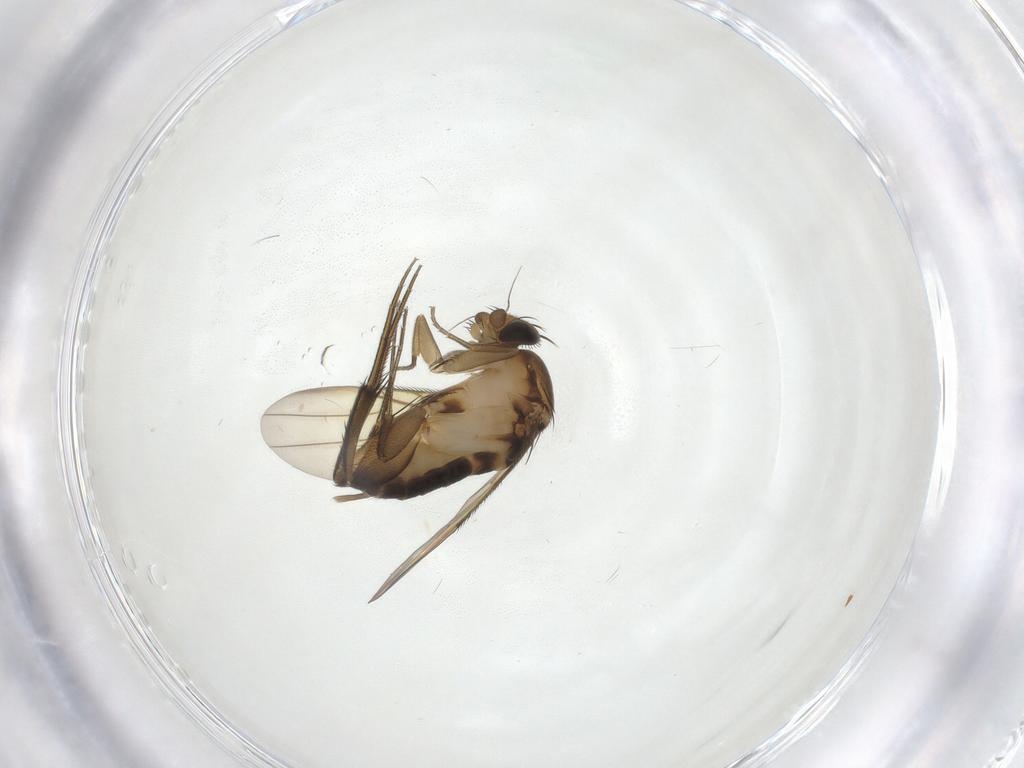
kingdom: Animalia
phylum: Arthropoda
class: Insecta
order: Diptera
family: Phoridae
